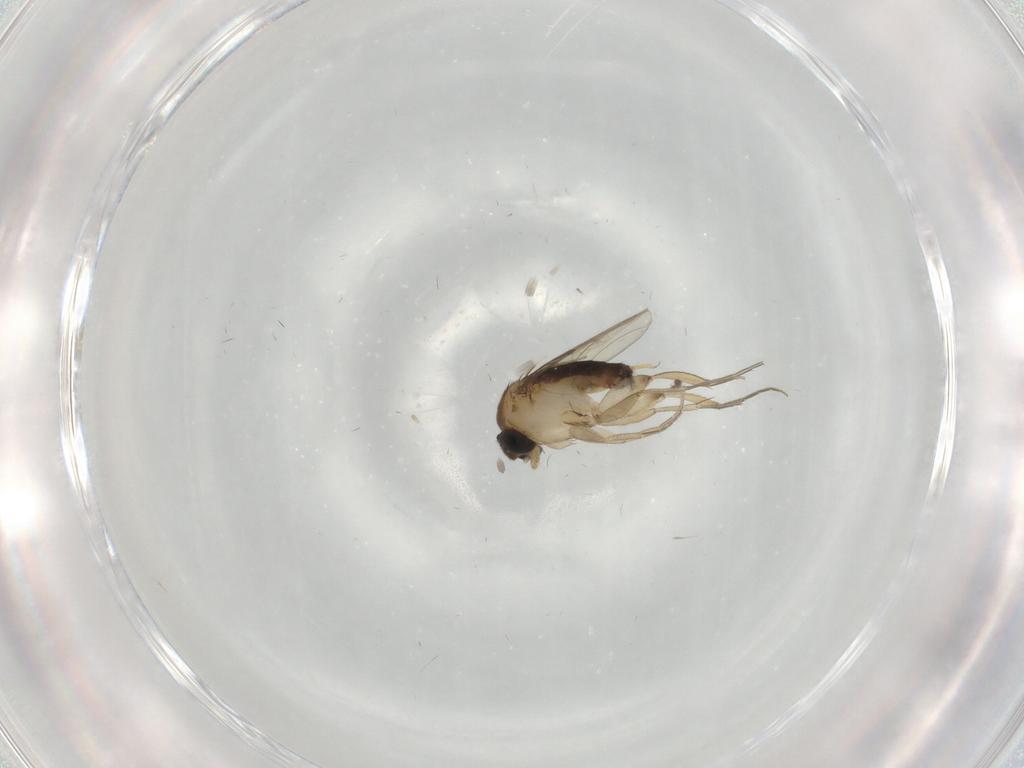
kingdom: Animalia
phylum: Arthropoda
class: Insecta
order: Diptera
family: Phoridae
